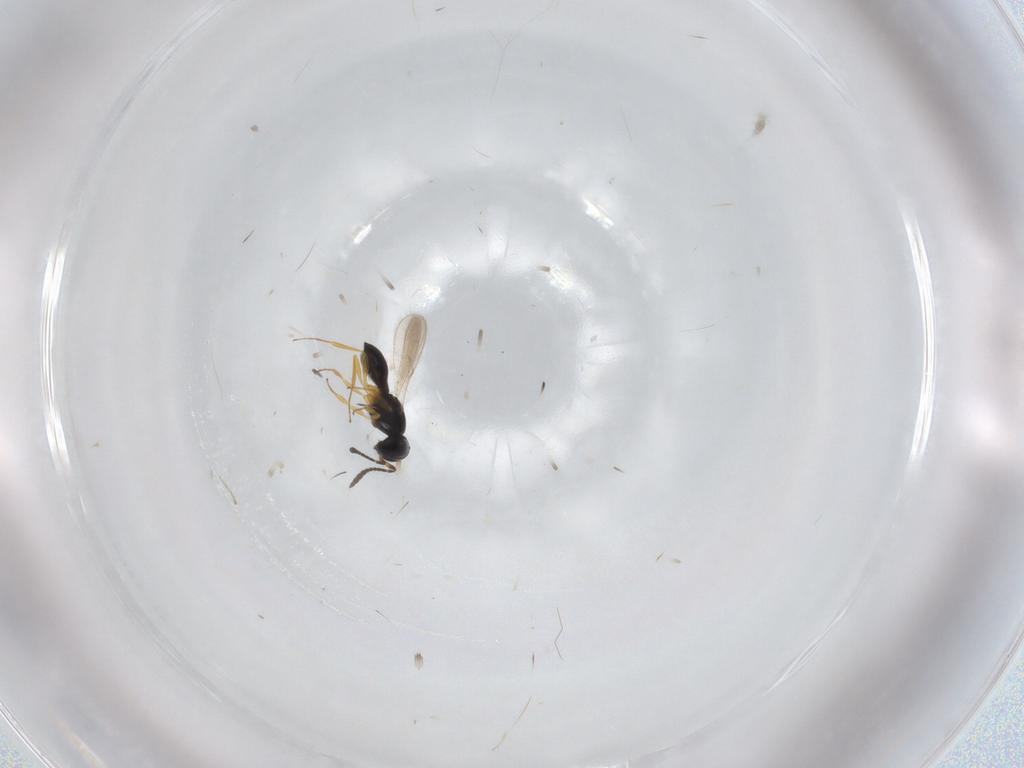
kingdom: Animalia
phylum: Arthropoda
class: Insecta
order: Hymenoptera
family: Scelionidae
